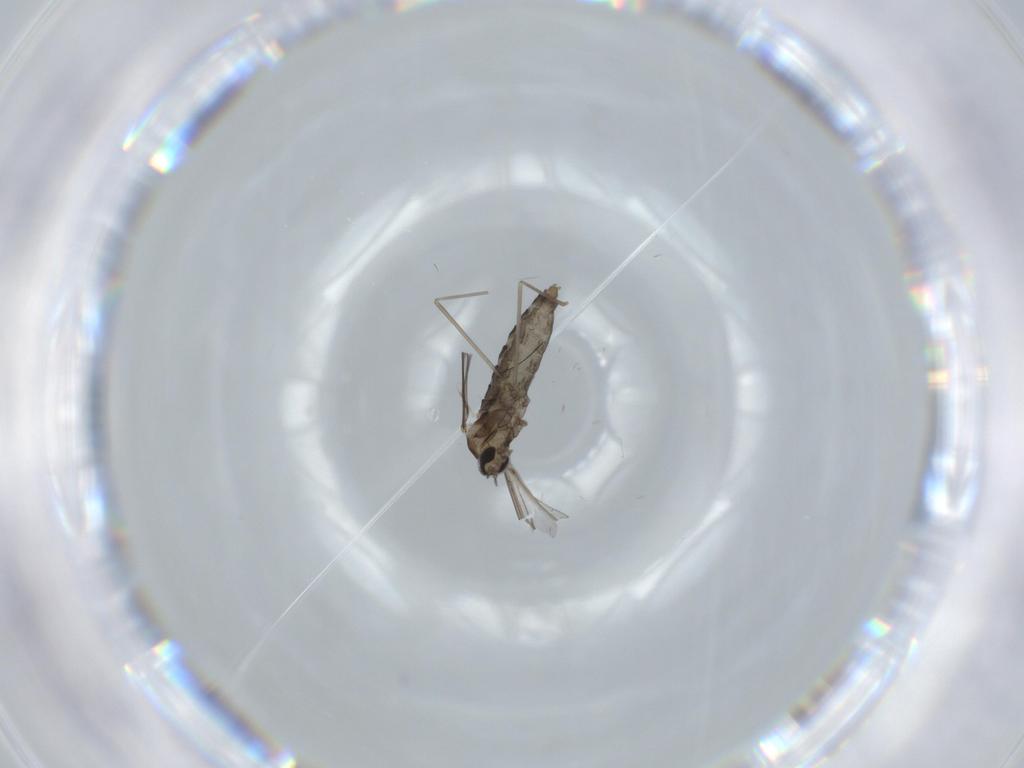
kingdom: Animalia
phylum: Arthropoda
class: Insecta
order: Diptera
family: Cecidomyiidae
